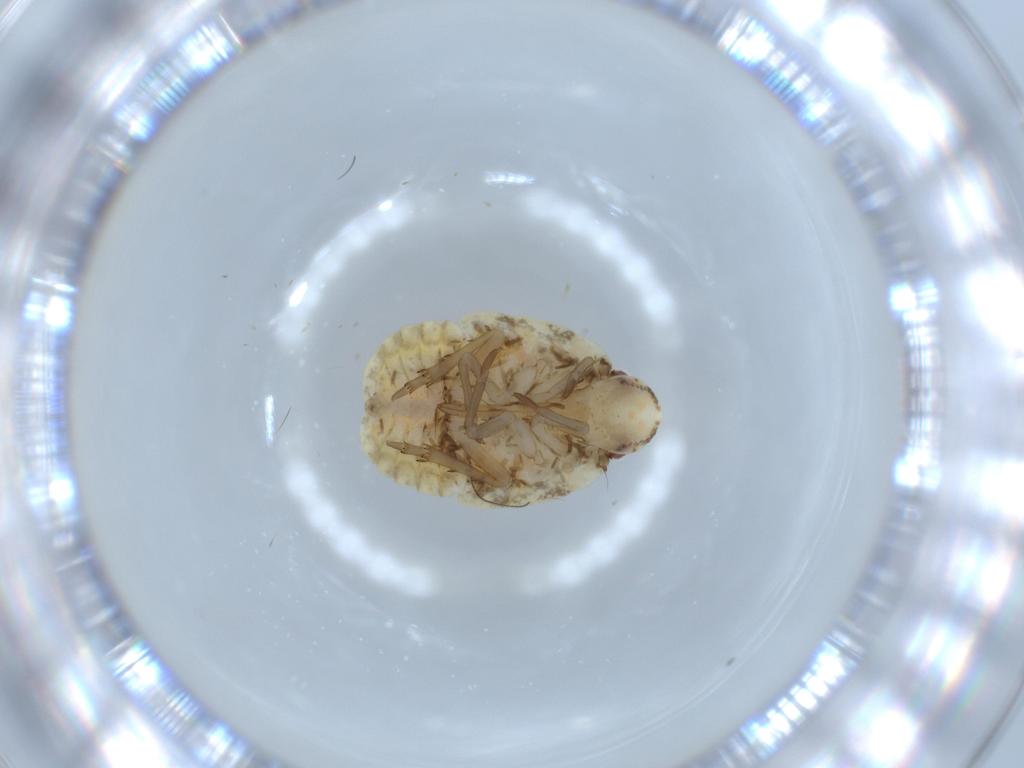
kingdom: Animalia
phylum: Arthropoda
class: Insecta
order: Hemiptera
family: Flatidae
